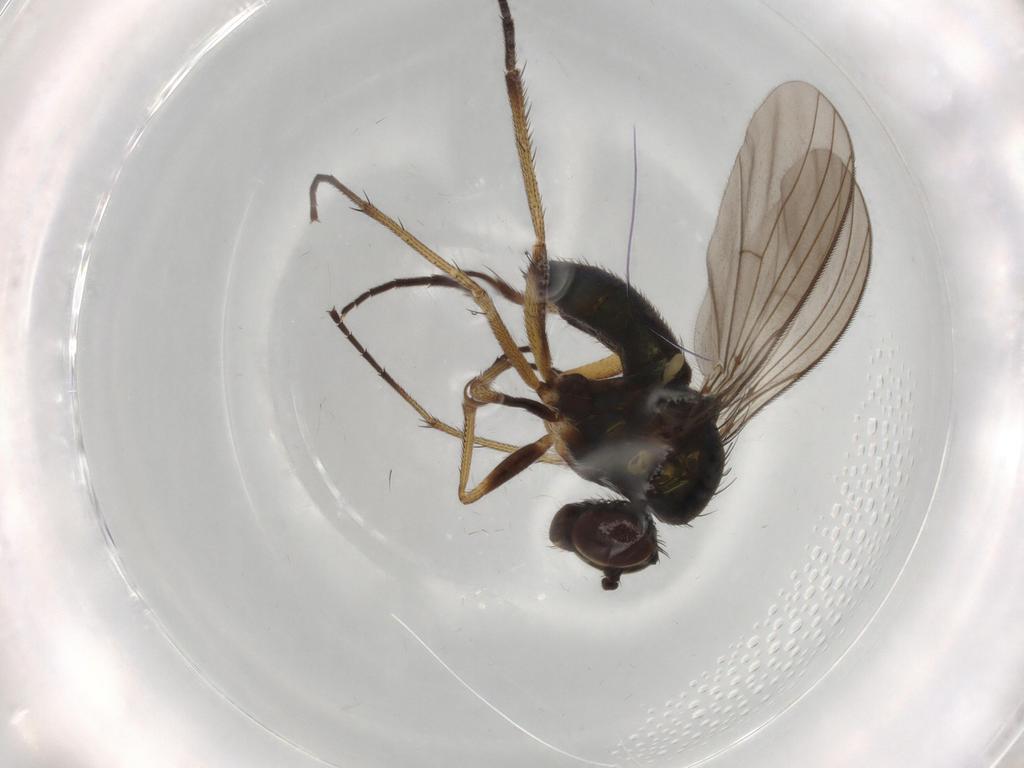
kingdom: Animalia
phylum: Arthropoda
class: Insecta
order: Diptera
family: Dolichopodidae
